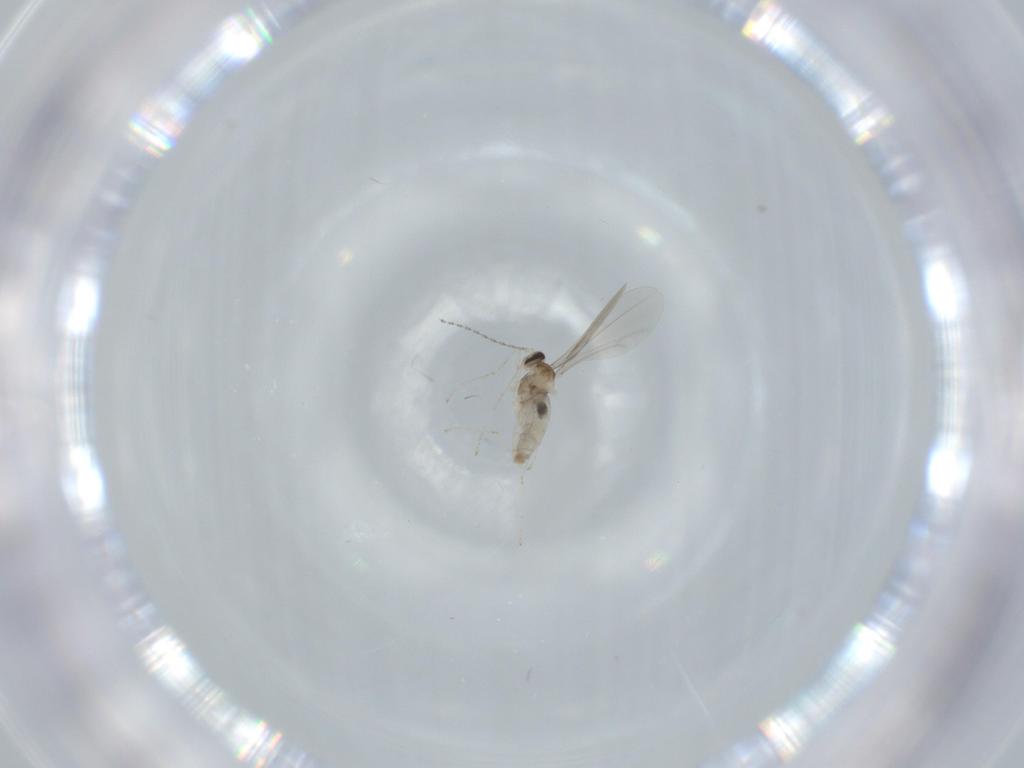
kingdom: Animalia
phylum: Arthropoda
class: Insecta
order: Diptera
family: Cecidomyiidae
